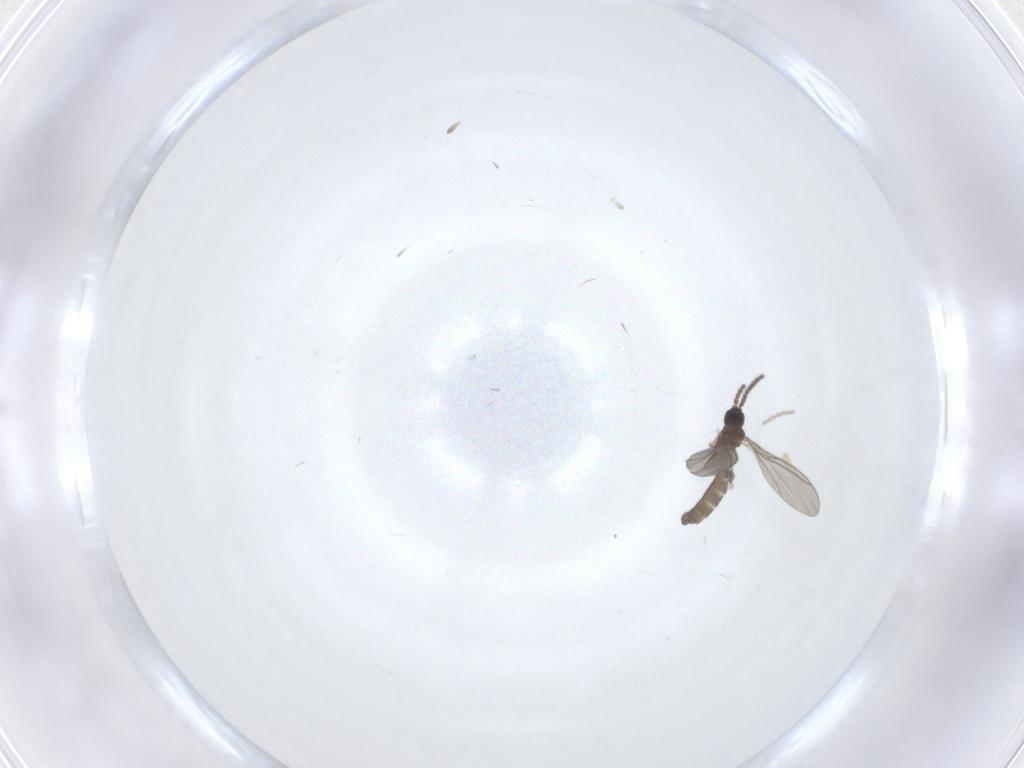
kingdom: Animalia
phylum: Arthropoda
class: Insecta
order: Diptera
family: Sciaridae
